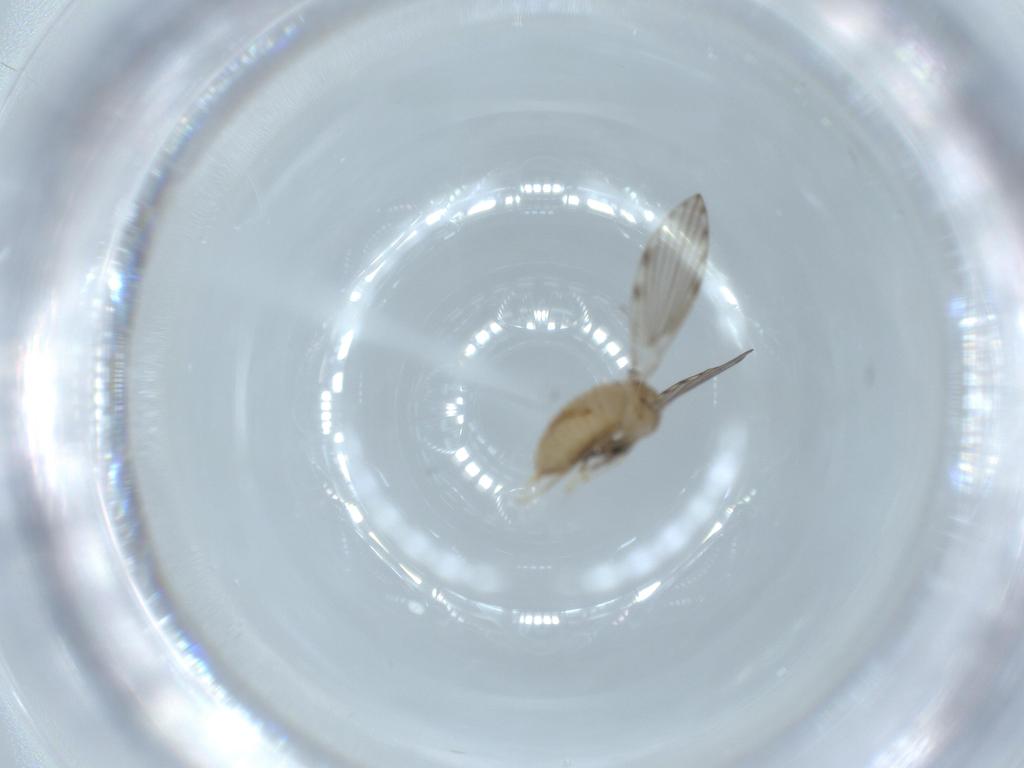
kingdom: Animalia
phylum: Arthropoda
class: Insecta
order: Diptera
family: Psychodidae
